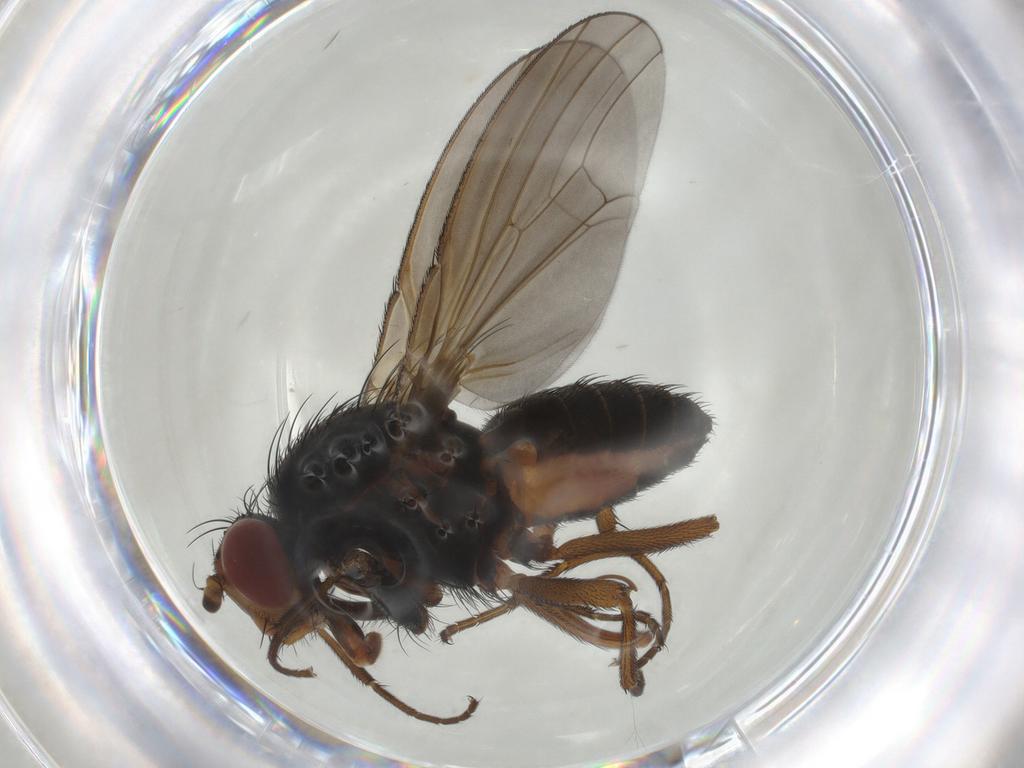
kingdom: Animalia
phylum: Arthropoda
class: Insecta
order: Diptera
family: Heleomyzidae
